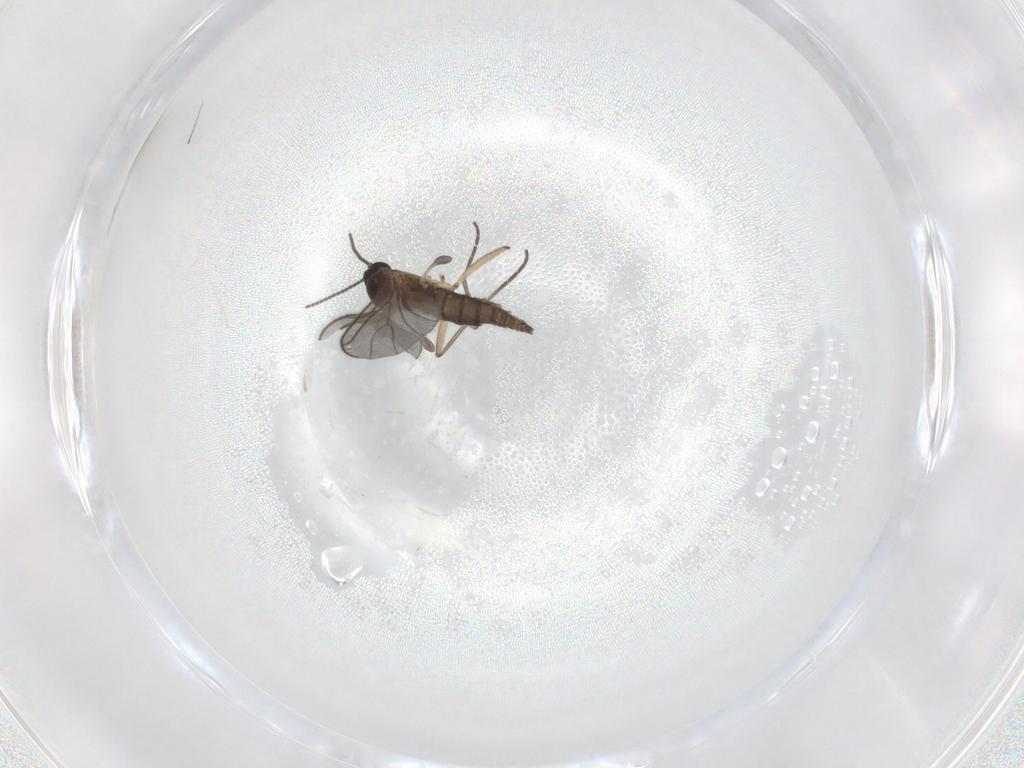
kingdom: Animalia
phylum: Arthropoda
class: Insecta
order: Diptera
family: Sciaridae
